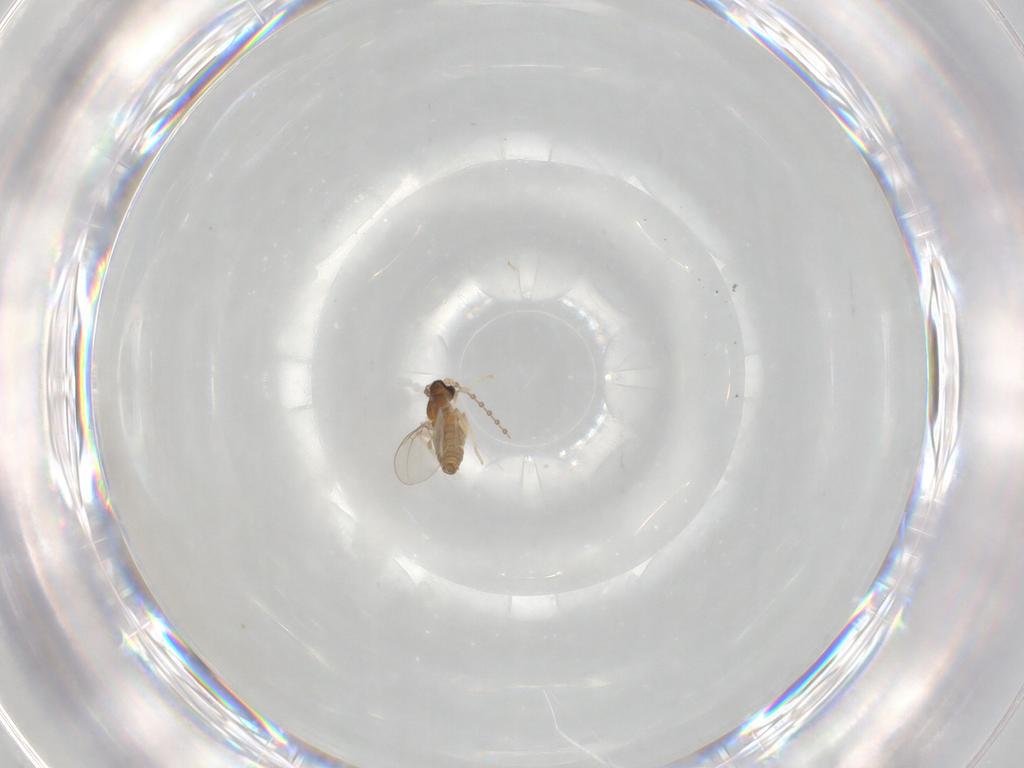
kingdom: Animalia
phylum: Arthropoda
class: Insecta
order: Diptera
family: Cecidomyiidae
